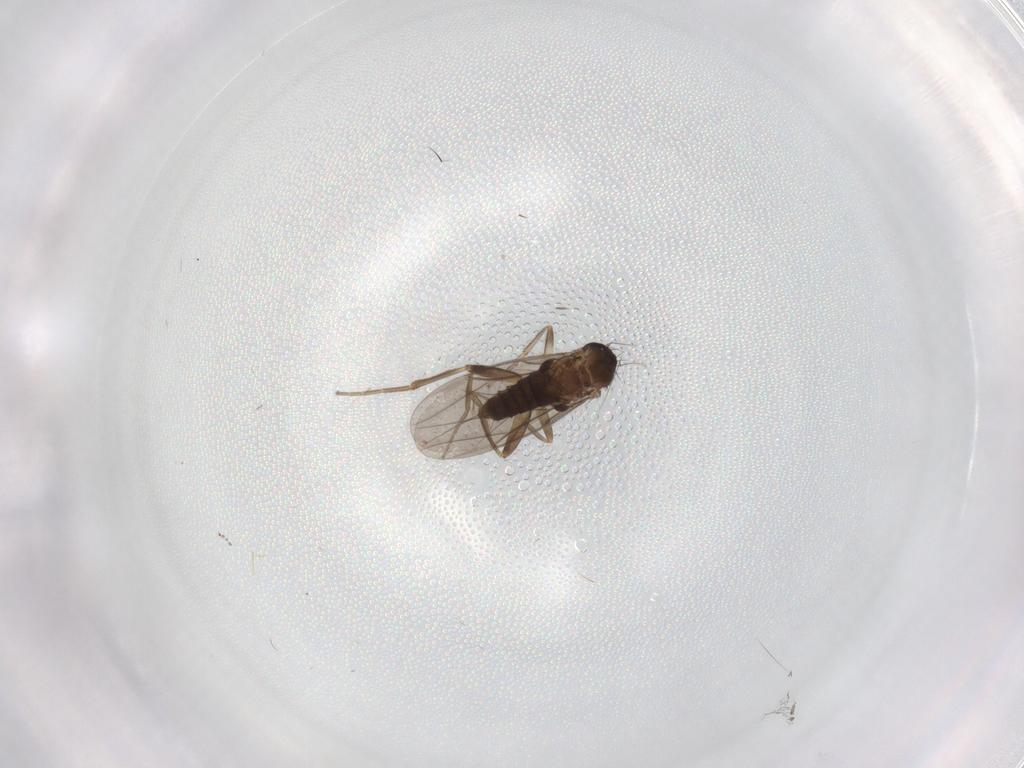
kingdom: Animalia
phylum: Arthropoda
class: Insecta
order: Diptera
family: Chironomidae
